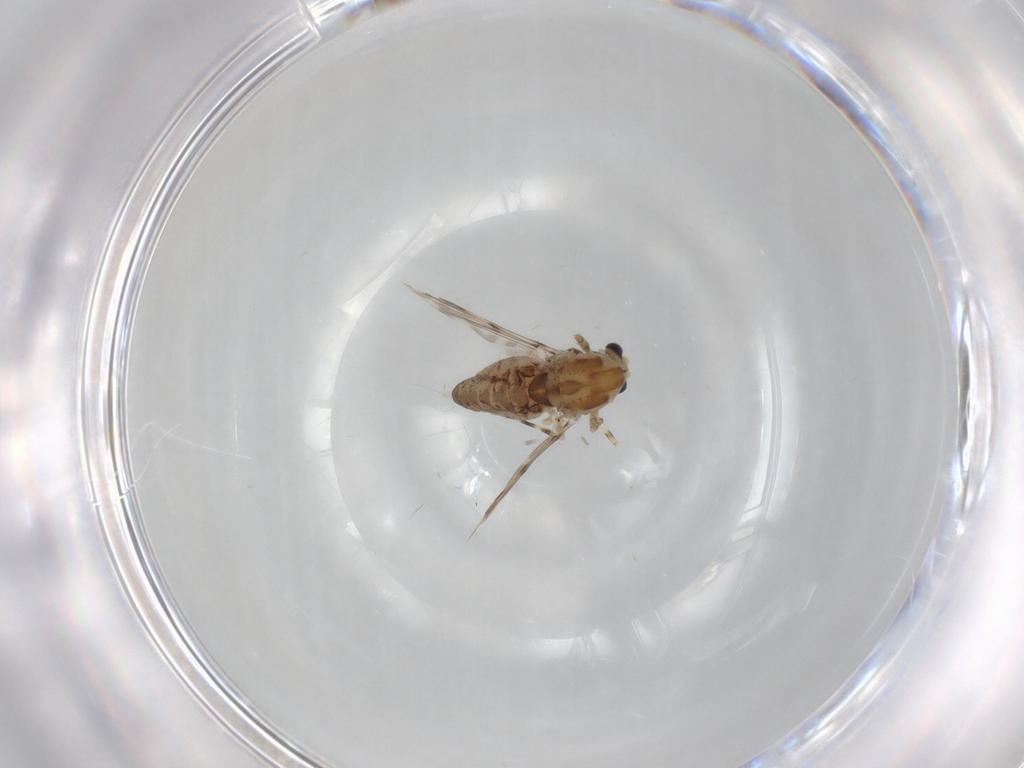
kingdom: Animalia
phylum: Arthropoda
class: Insecta
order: Diptera
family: Chironomidae
